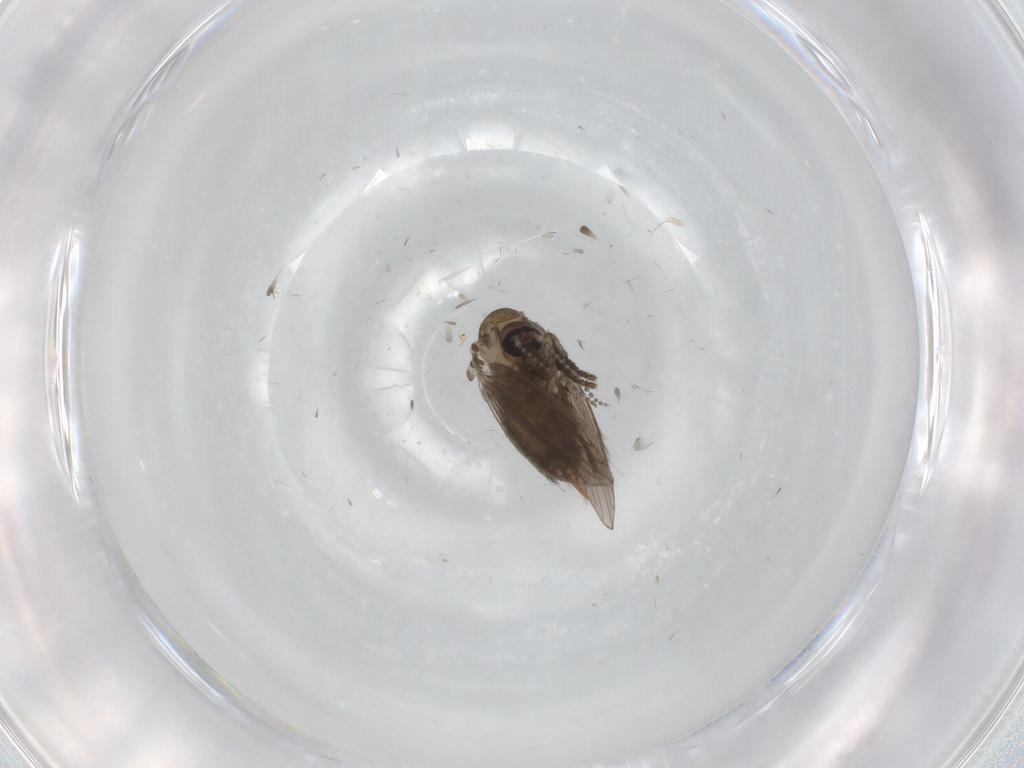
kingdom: Animalia
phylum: Arthropoda
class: Insecta
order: Diptera
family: Psychodidae
